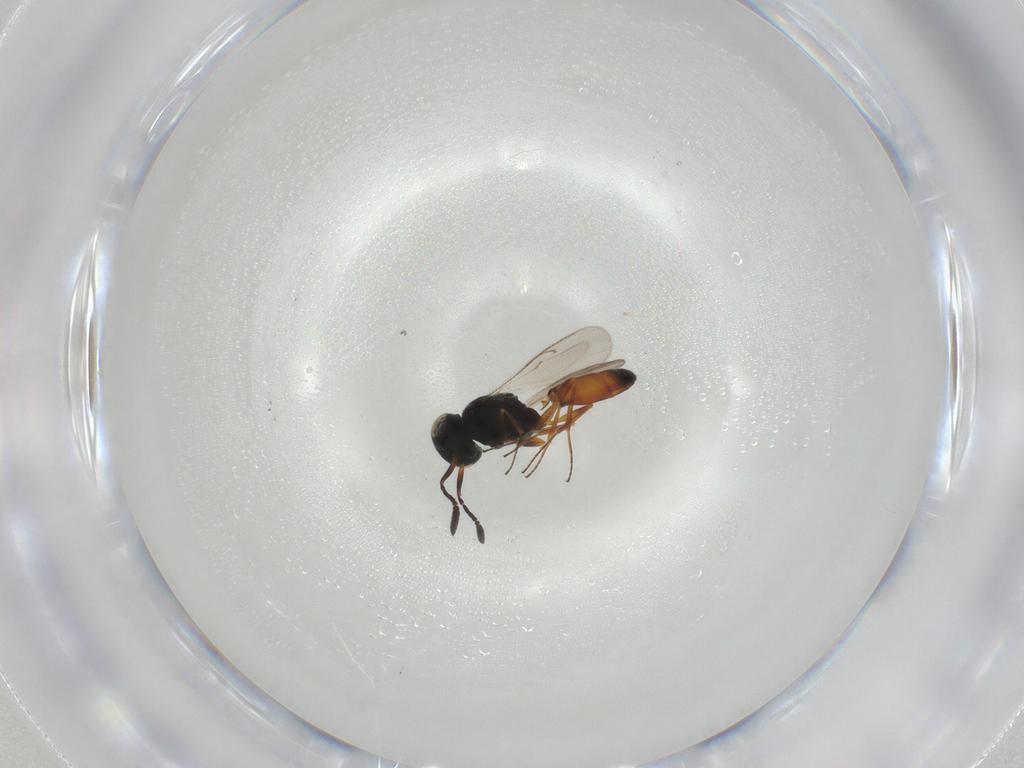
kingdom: Animalia
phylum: Arthropoda
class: Insecta
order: Hymenoptera
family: Scelionidae
